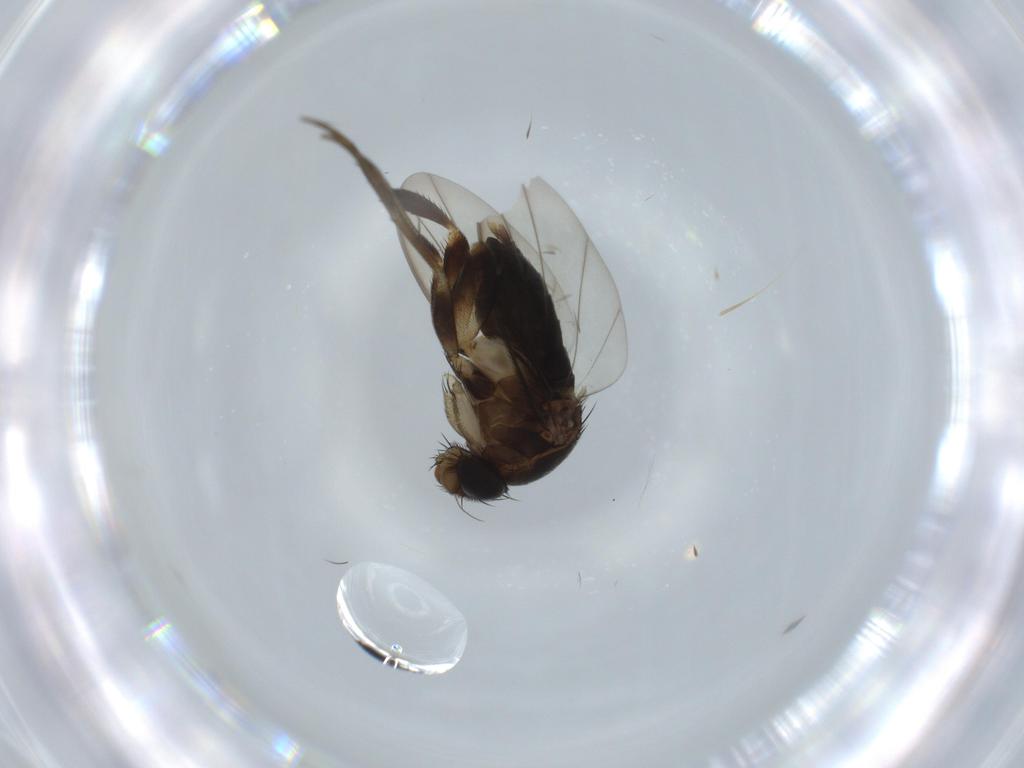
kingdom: Animalia
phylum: Arthropoda
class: Insecta
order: Diptera
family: Phoridae
